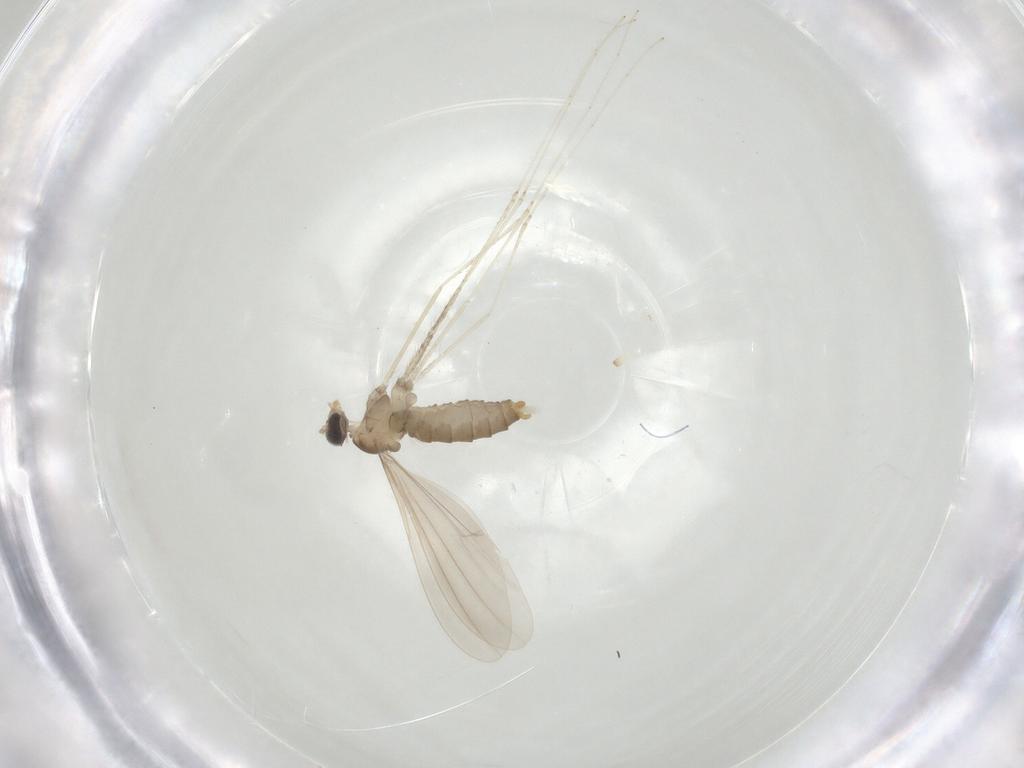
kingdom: Animalia
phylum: Arthropoda
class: Insecta
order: Diptera
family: Cecidomyiidae
